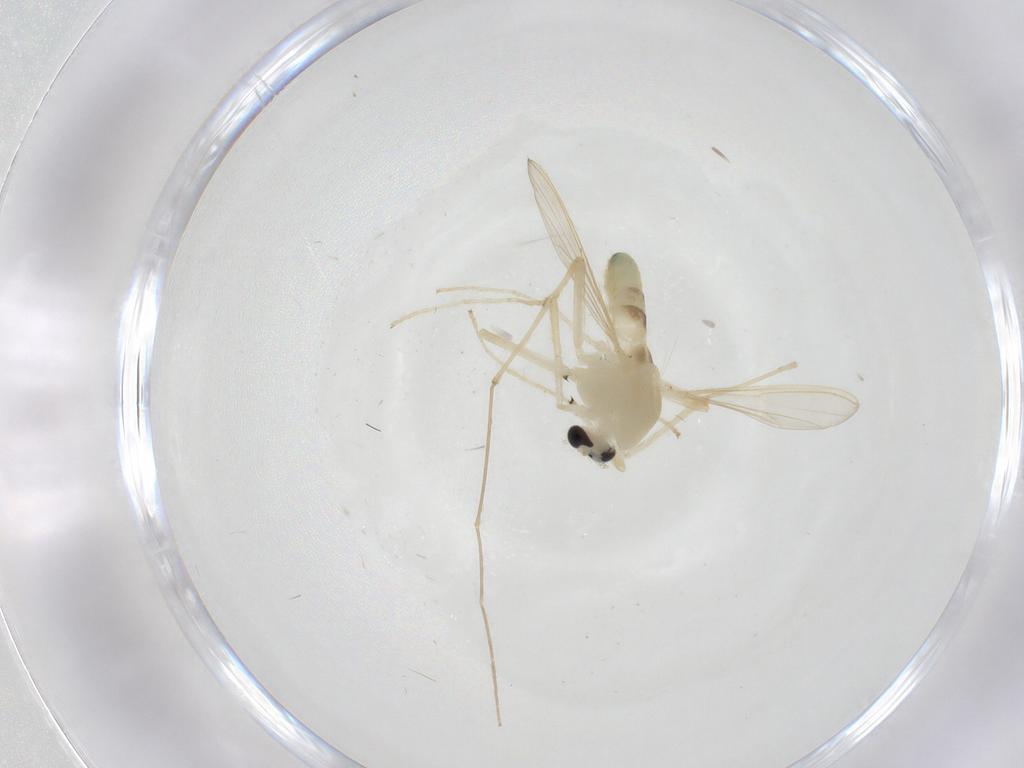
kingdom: Animalia
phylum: Arthropoda
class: Insecta
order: Diptera
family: Chironomidae
